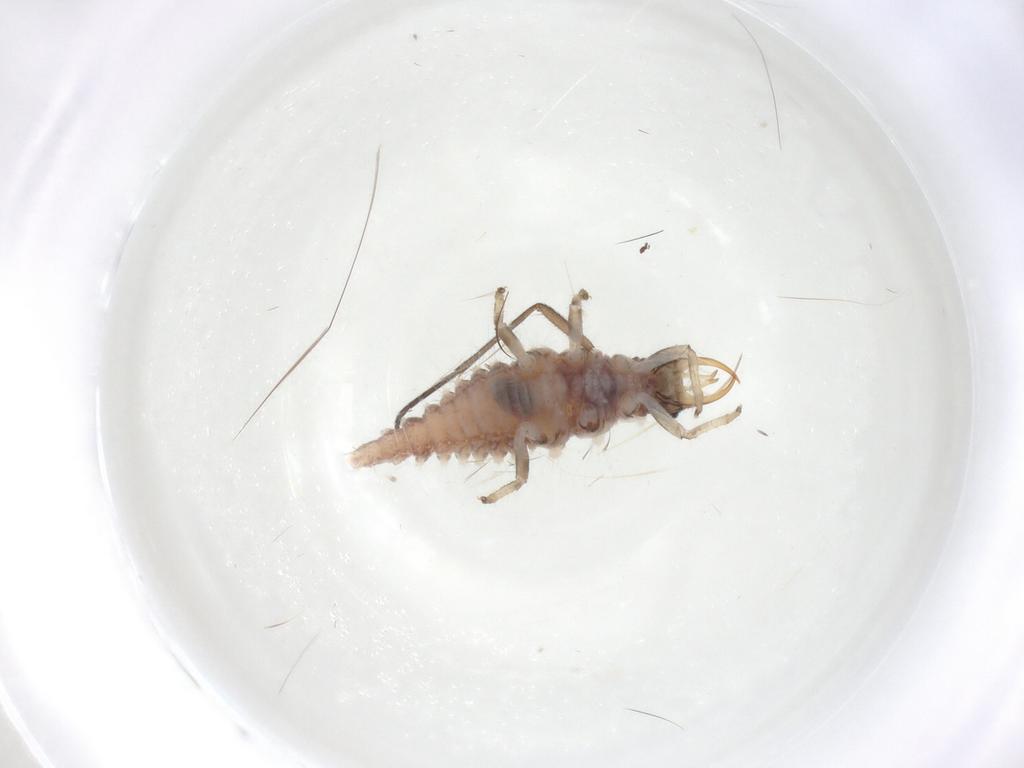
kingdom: Animalia
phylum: Arthropoda
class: Insecta
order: Neuroptera
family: Chrysopidae
